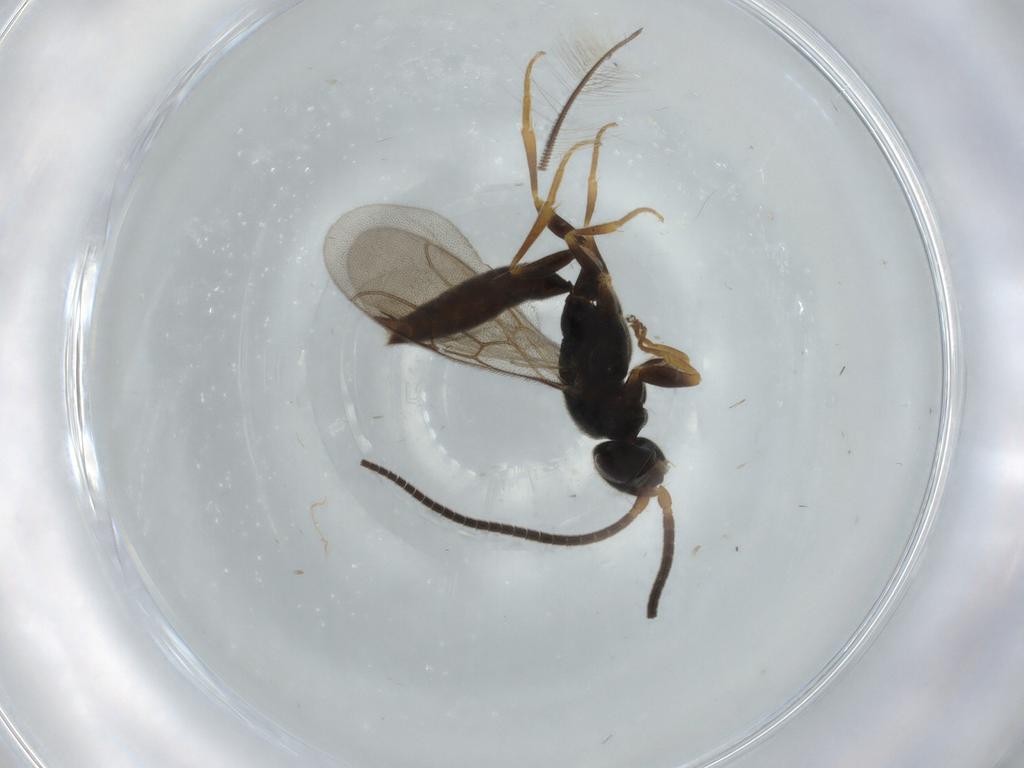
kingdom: Animalia
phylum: Arthropoda
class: Insecta
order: Hymenoptera
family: Sclerogibbidae
